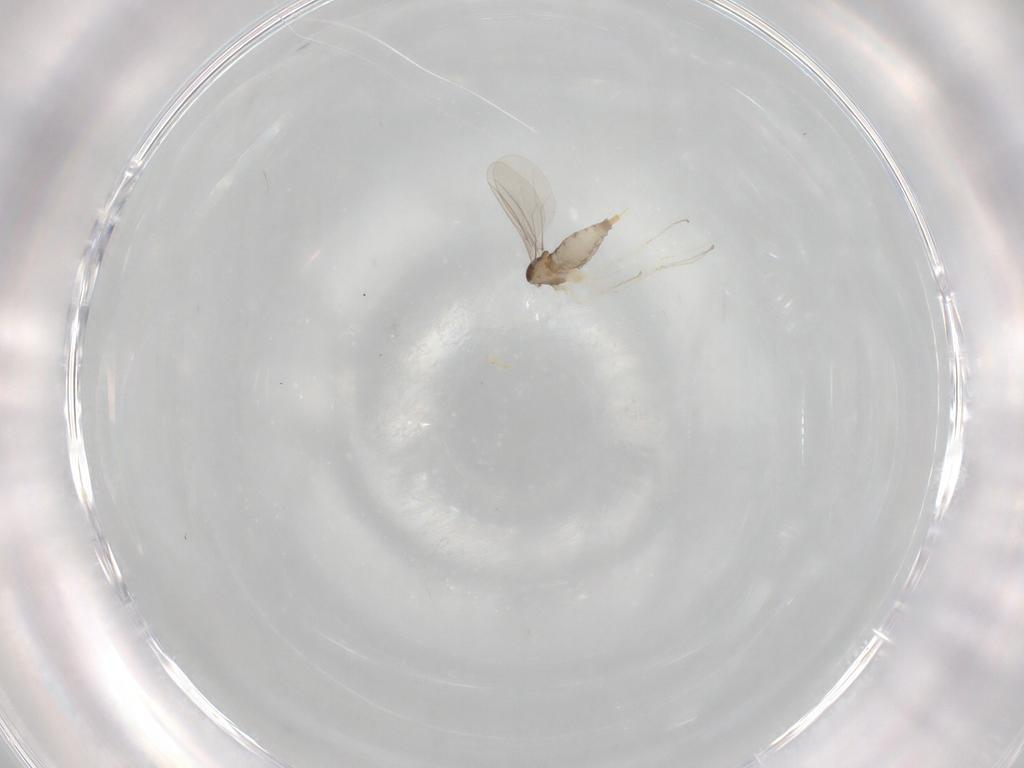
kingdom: Animalia
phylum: Arthropoda
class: Insecta
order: Diptera
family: Cecidomyiidae
